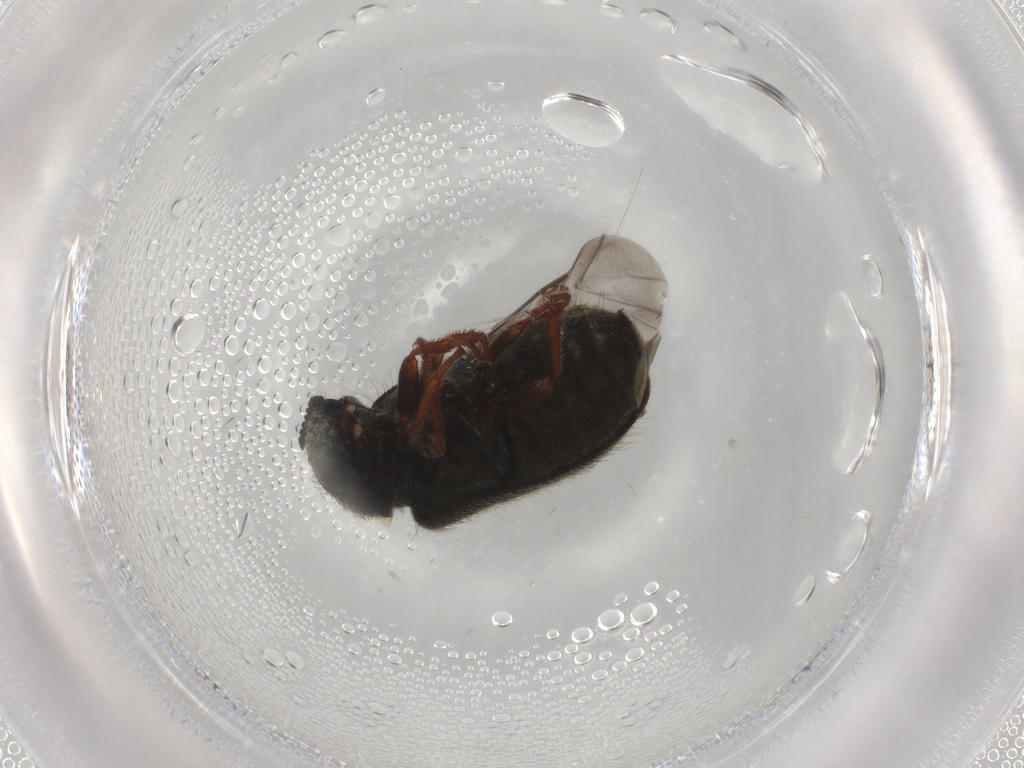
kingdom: Animalia
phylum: Arthropoda
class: Insecta
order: Coleoptera
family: Melyridae
